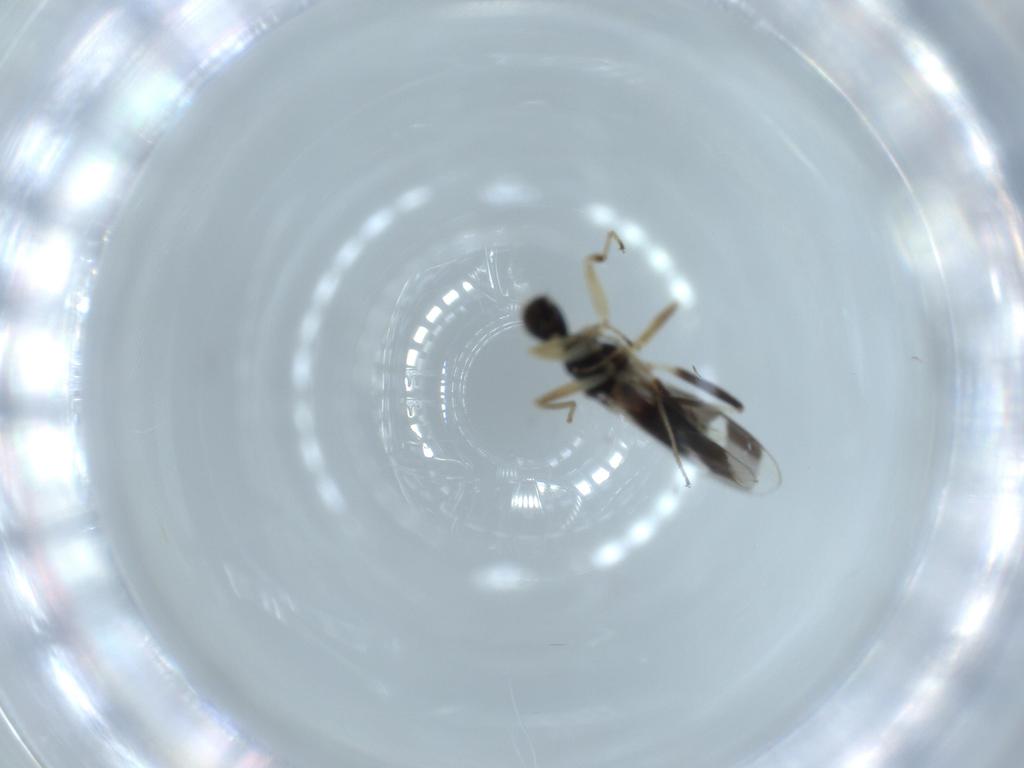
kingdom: Animalia
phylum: Arthropoda
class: Insecta
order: Diptera
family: Hybotidae
